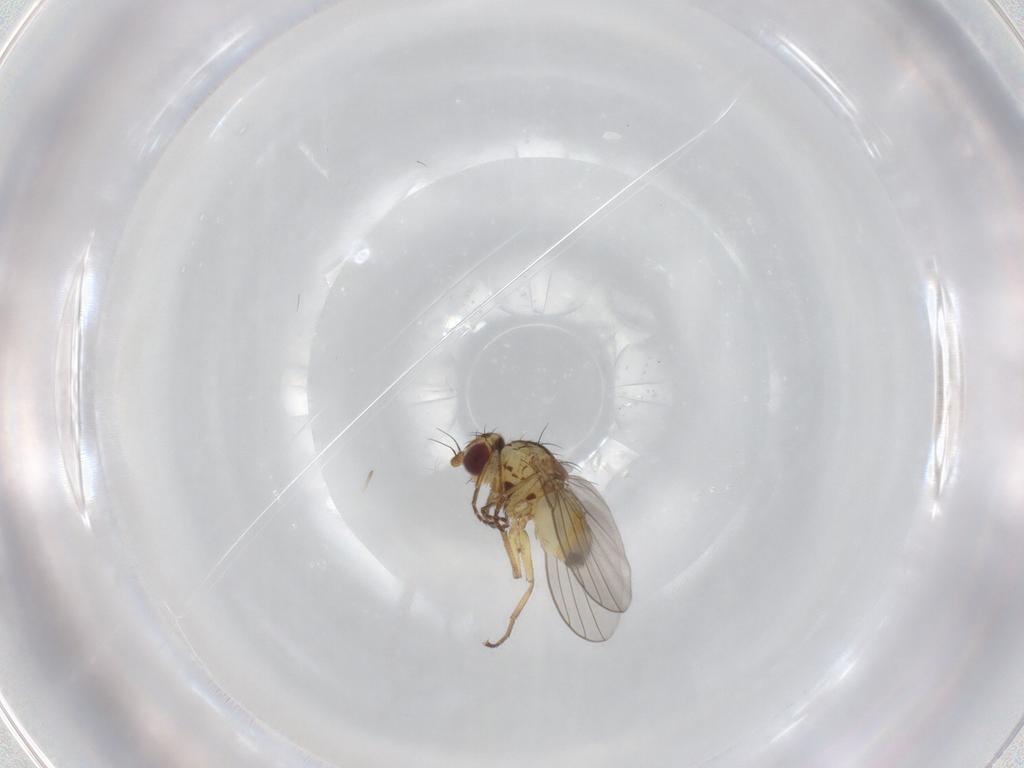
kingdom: Animalia
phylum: Arthropoda
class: Insecta
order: Diptera
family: Agromyzidae
